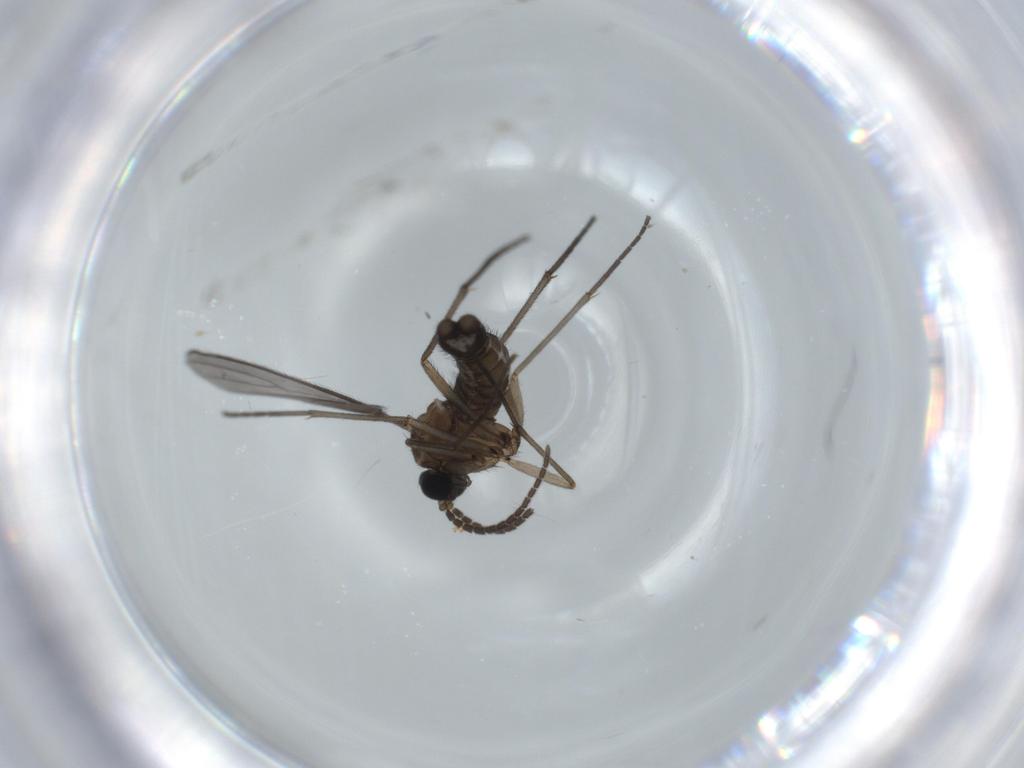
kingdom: Animalia
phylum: Arthropoda
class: Insecta
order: Diptera
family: Sciaridae
